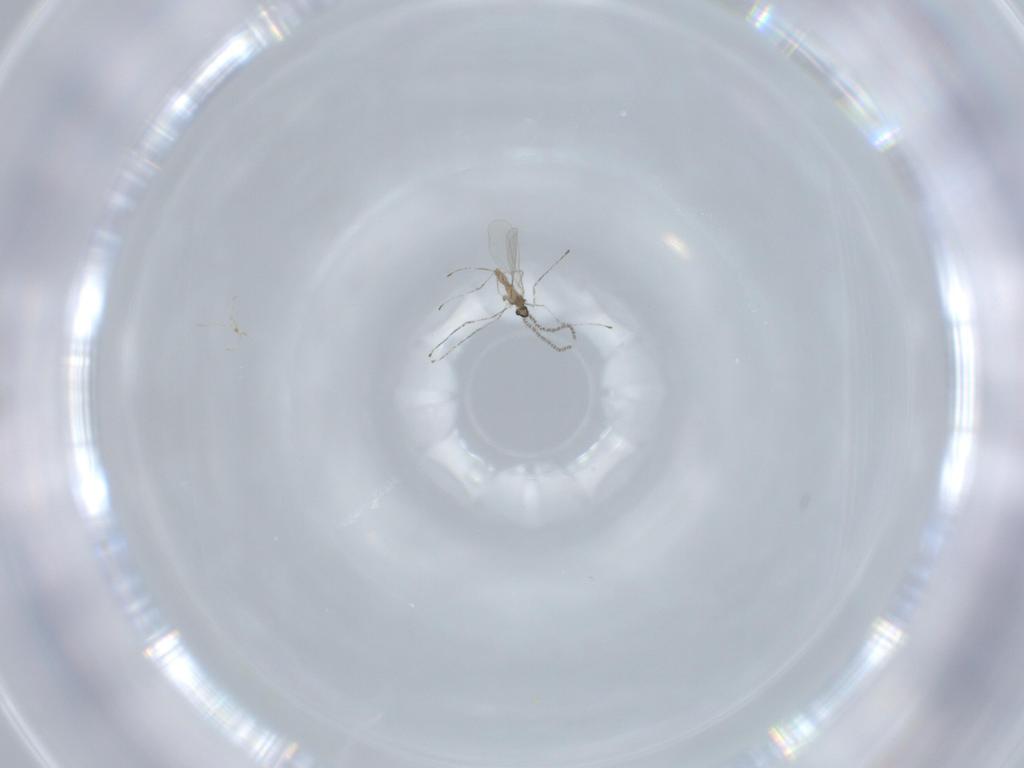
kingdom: Animalia
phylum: Arthropoda
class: Insecta
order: Diptera
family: Cecidomyiidae
